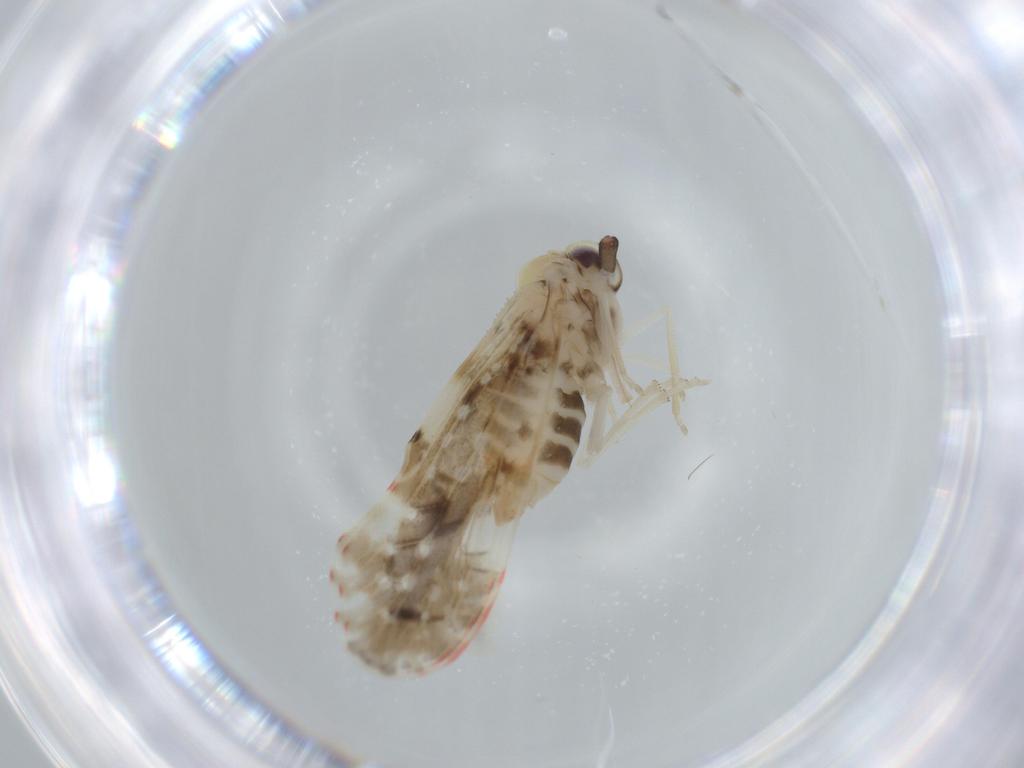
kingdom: Animalia
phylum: Arthropoda
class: Insecta
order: Hemiptera
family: Derbidae
